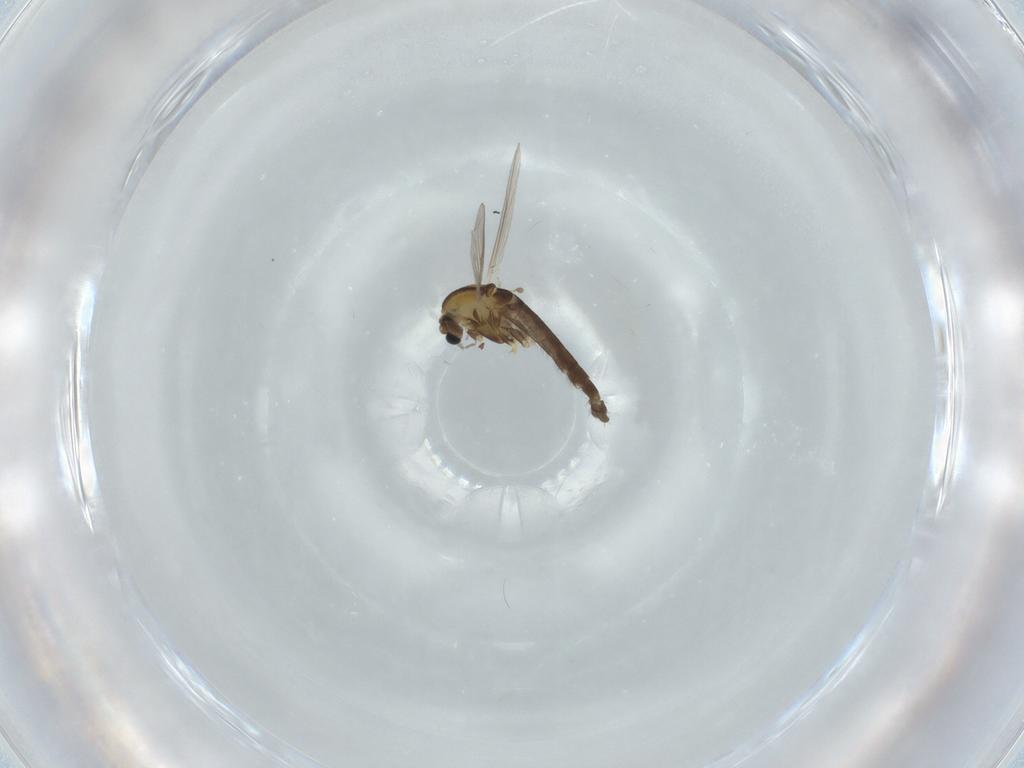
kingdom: Animalia
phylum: Arthropoda
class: Insecta
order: Diptera
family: Chironomidae
